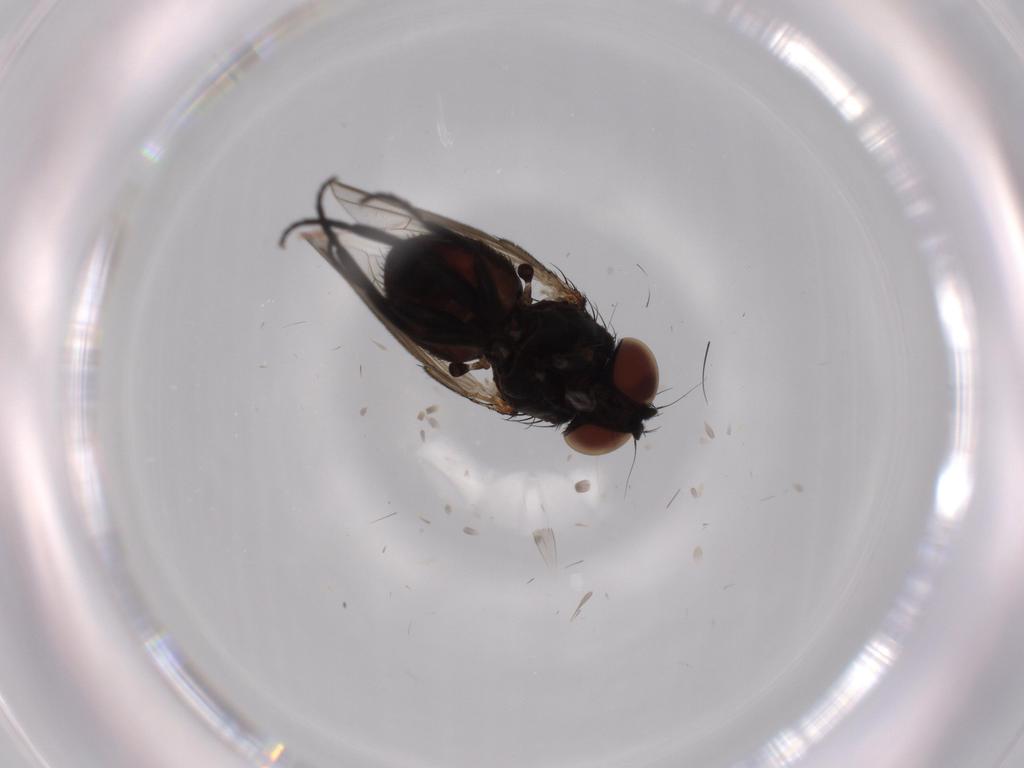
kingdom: Animalia
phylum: Arthropoda
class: Insecta
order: Diptera
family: Milichiidae
